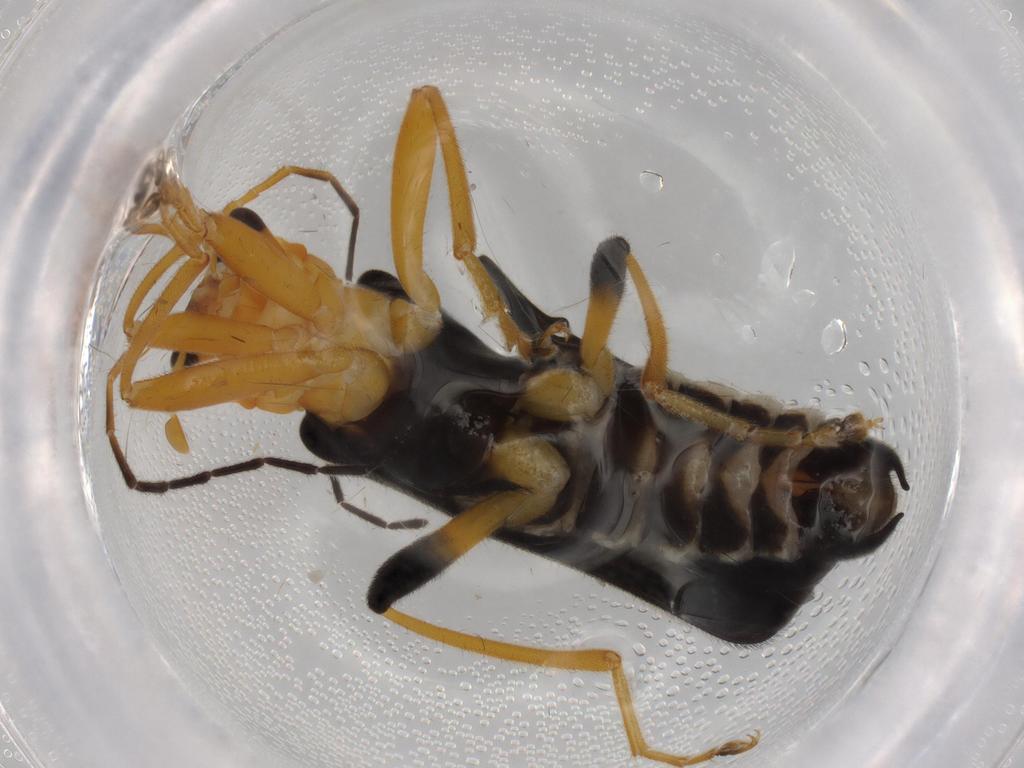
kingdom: Animalia
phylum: Arthropoda
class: Insecta
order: Coleoptera
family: Cantharidae
